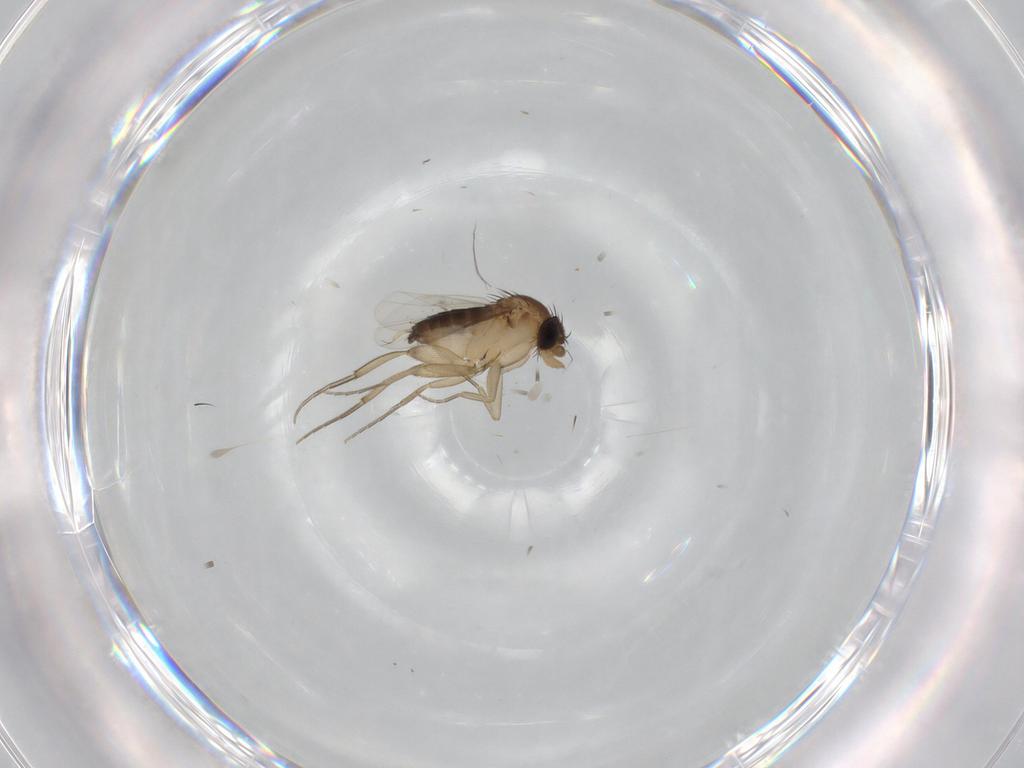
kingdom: Animalia
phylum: Arthropoda
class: Insecta
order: Diptera
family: Phoridae
